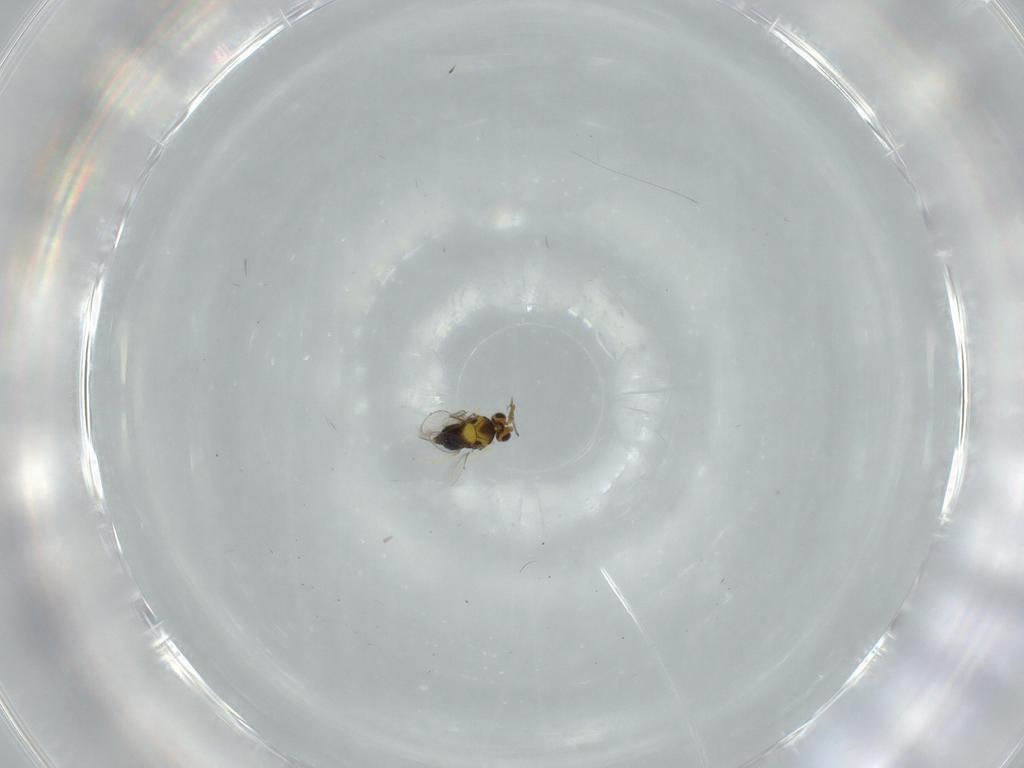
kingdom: Animalia
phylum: Arthropoda
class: Insecta
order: Hymenoptera
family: Aphelinidae
